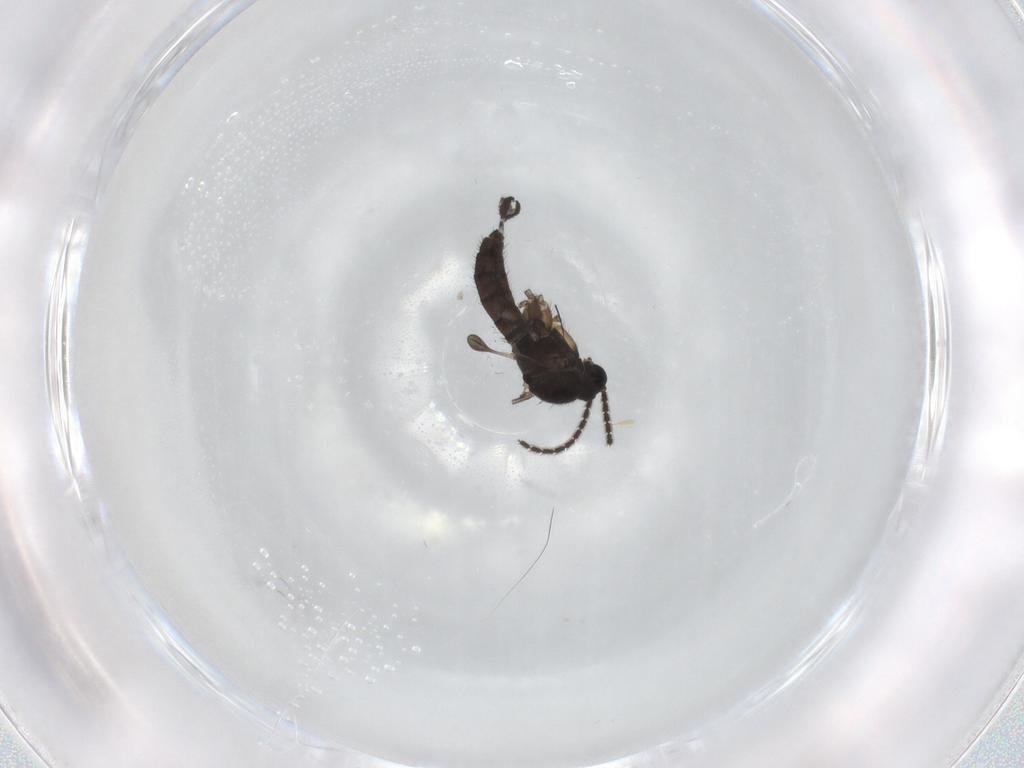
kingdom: Animalia
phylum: Arthropoda
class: Insecta
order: Diptera
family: Sciaridae
